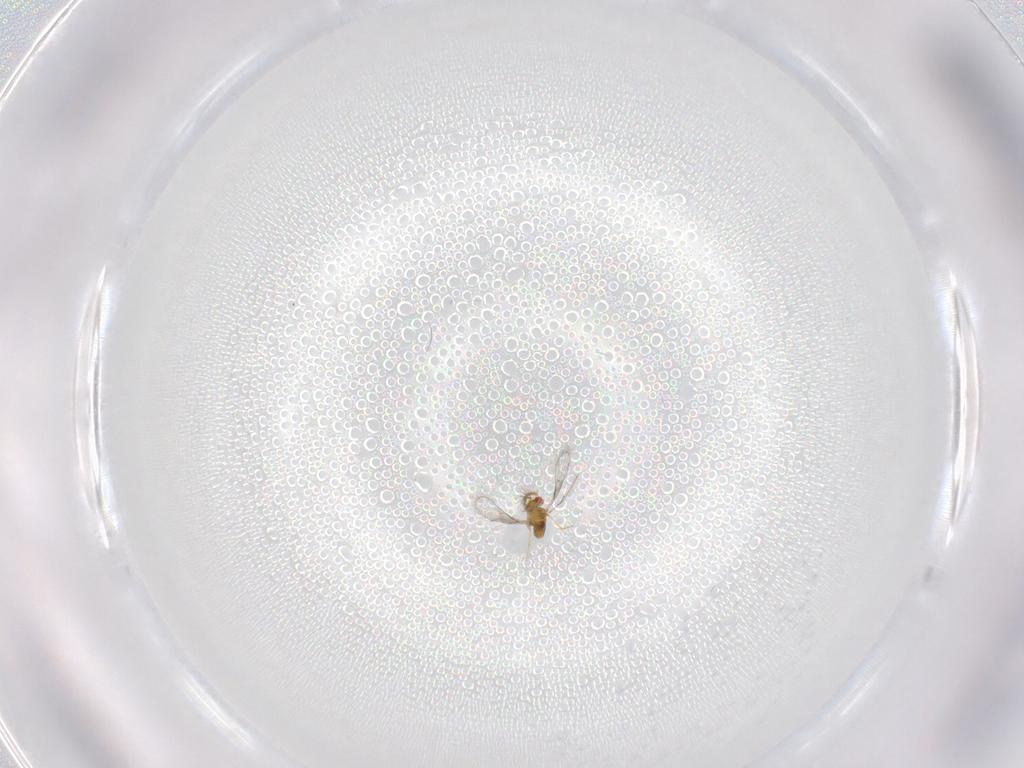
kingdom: Animalia
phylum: Arthropoda
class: Insecta
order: Hymenoptera
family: Trichogrammatidae
